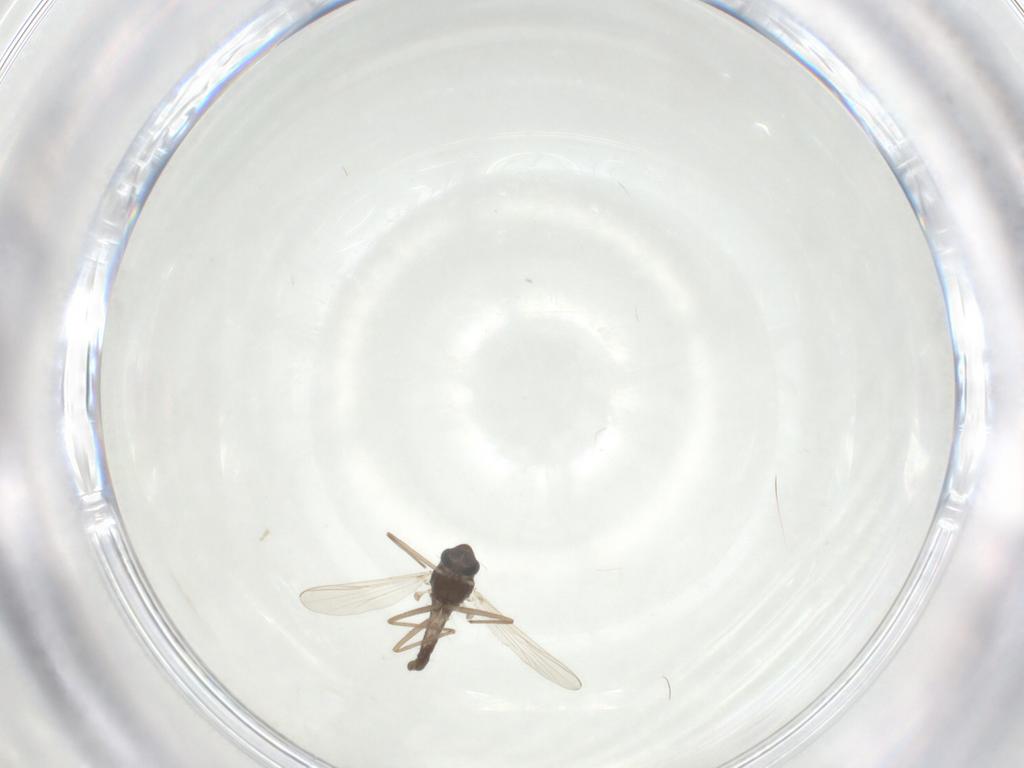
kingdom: Animalia
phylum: Arthropoda
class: Insecta
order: Diptera
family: Chironomidae
